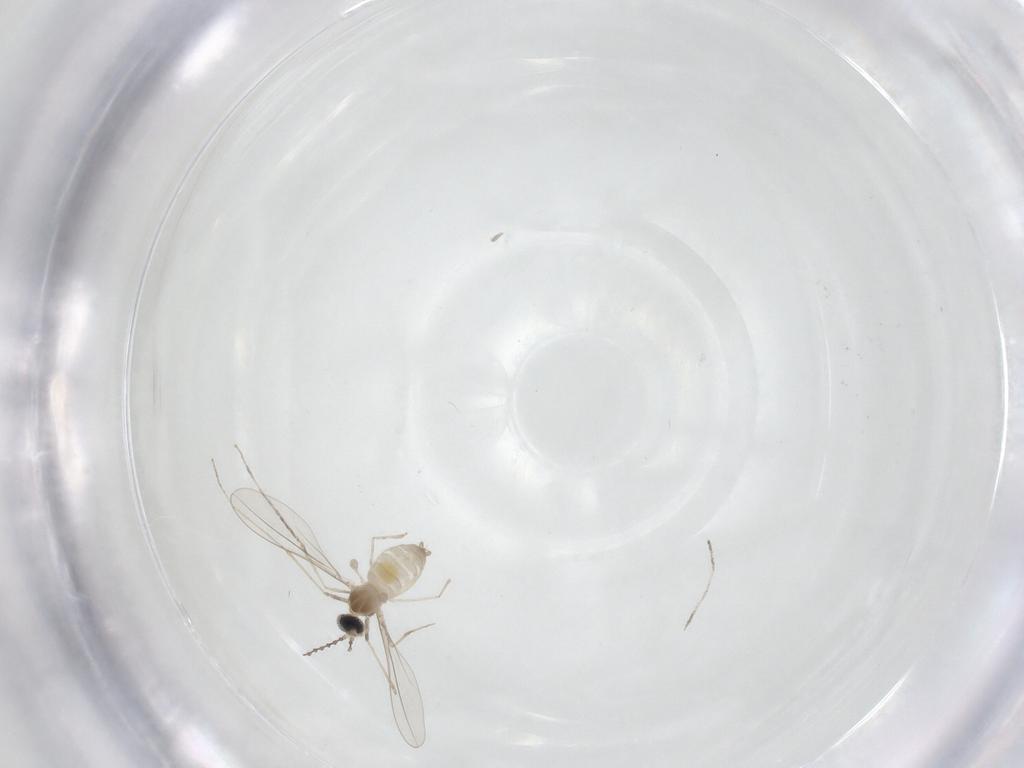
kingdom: Animalia
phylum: Arthropoda
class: Insecta
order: Diptera
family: Cecidomyiidae
